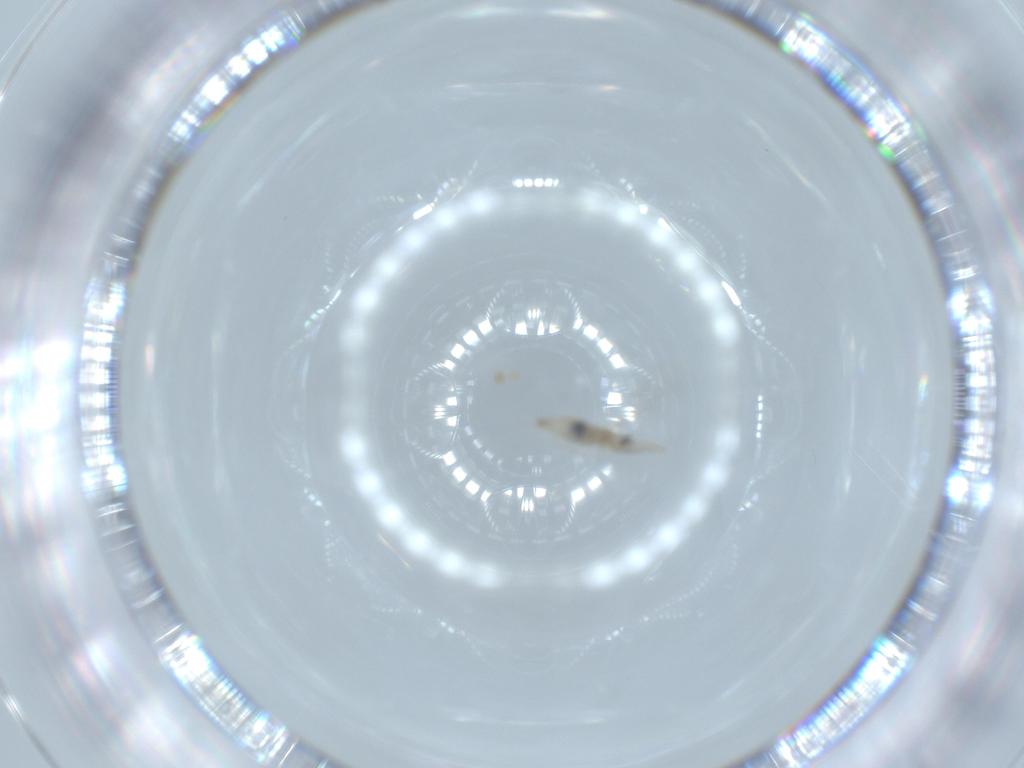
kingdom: Animalia
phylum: Arthropoda
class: Insecta
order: Diptera
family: Cecidomyiidae
